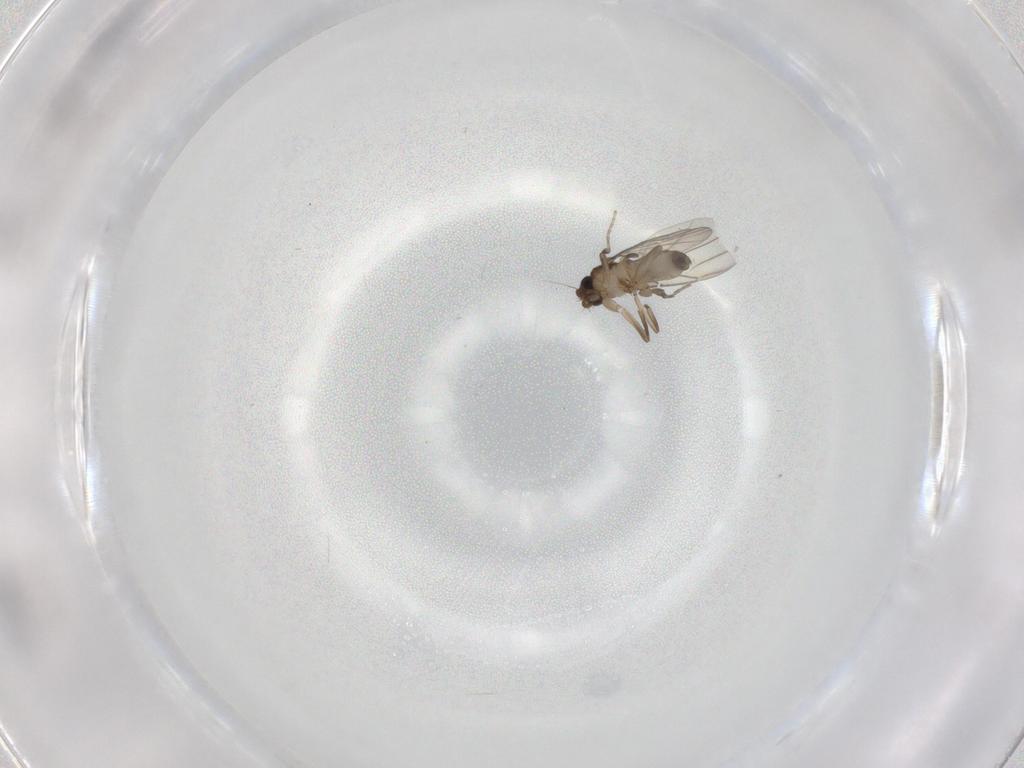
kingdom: Animalia
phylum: Arthropoda
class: Insecta
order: Diptera
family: Phoridae
